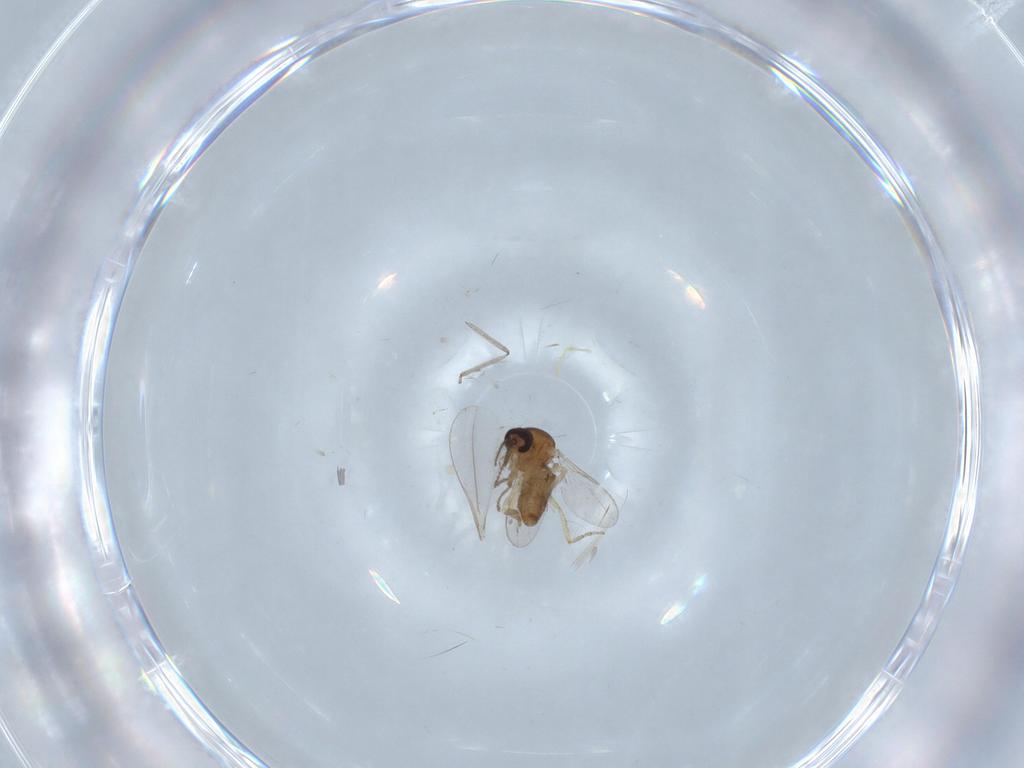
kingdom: Animalia
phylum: Arthropoda
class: Insecta
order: Diptera
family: Ceratopogonidae
